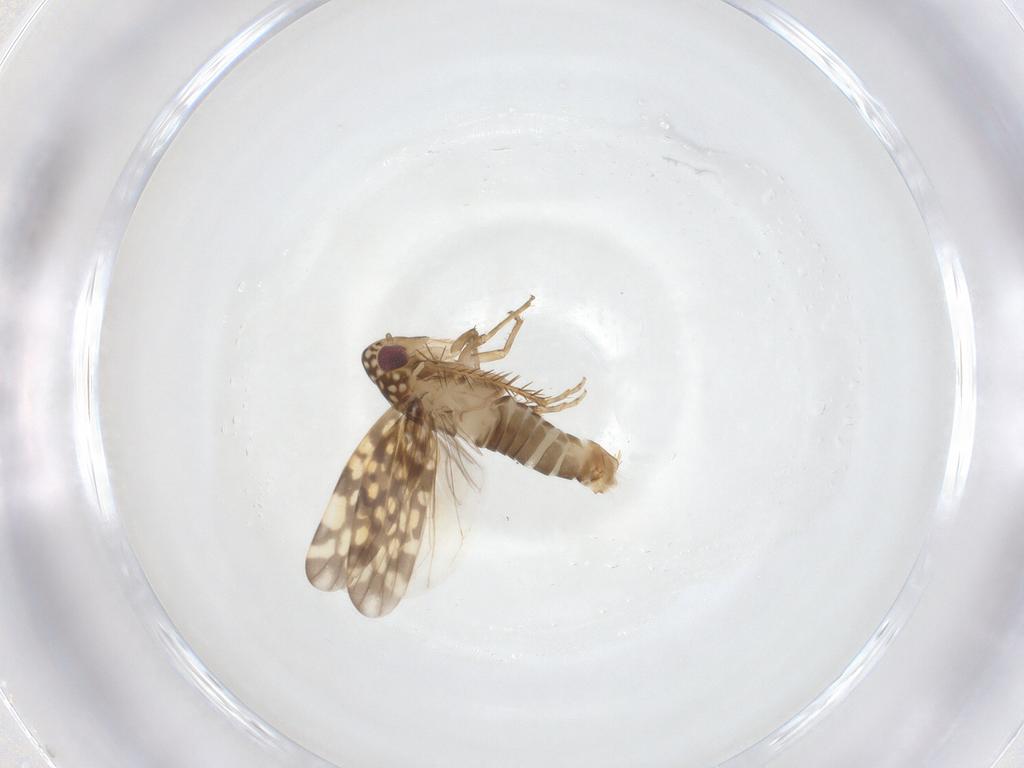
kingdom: Animalia
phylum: Arthropoda
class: Insecta
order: Hemiptera
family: Cicadellidae
